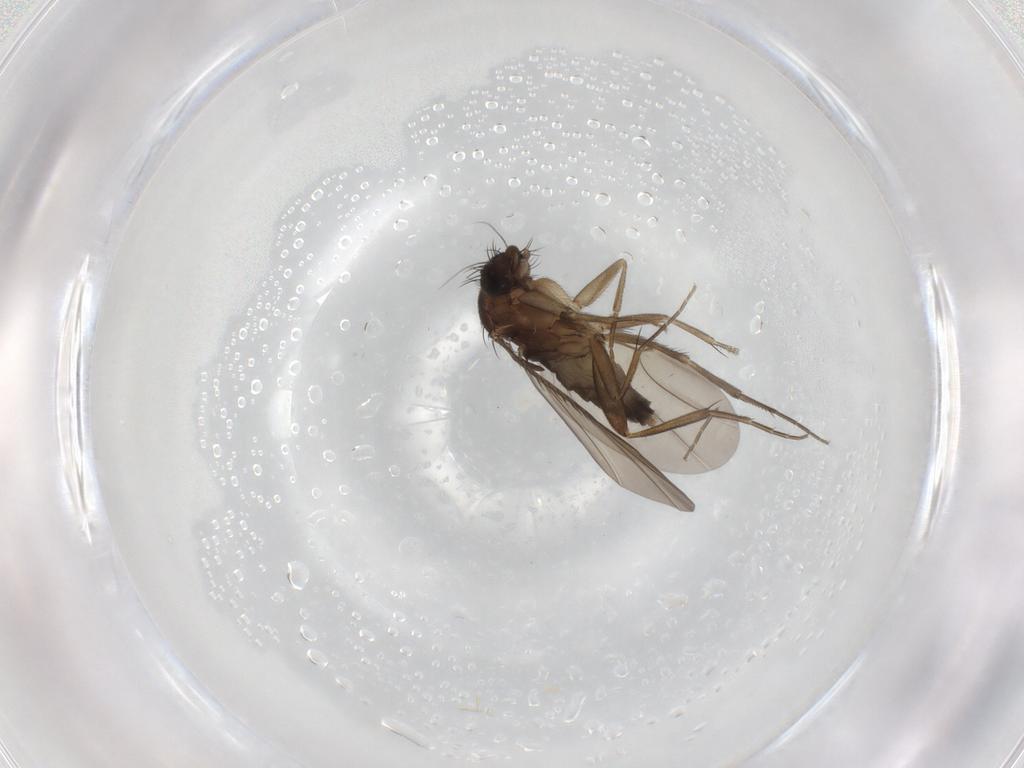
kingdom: Animalia
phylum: Arthropoda
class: Insecta
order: Diptera
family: Phoridae
